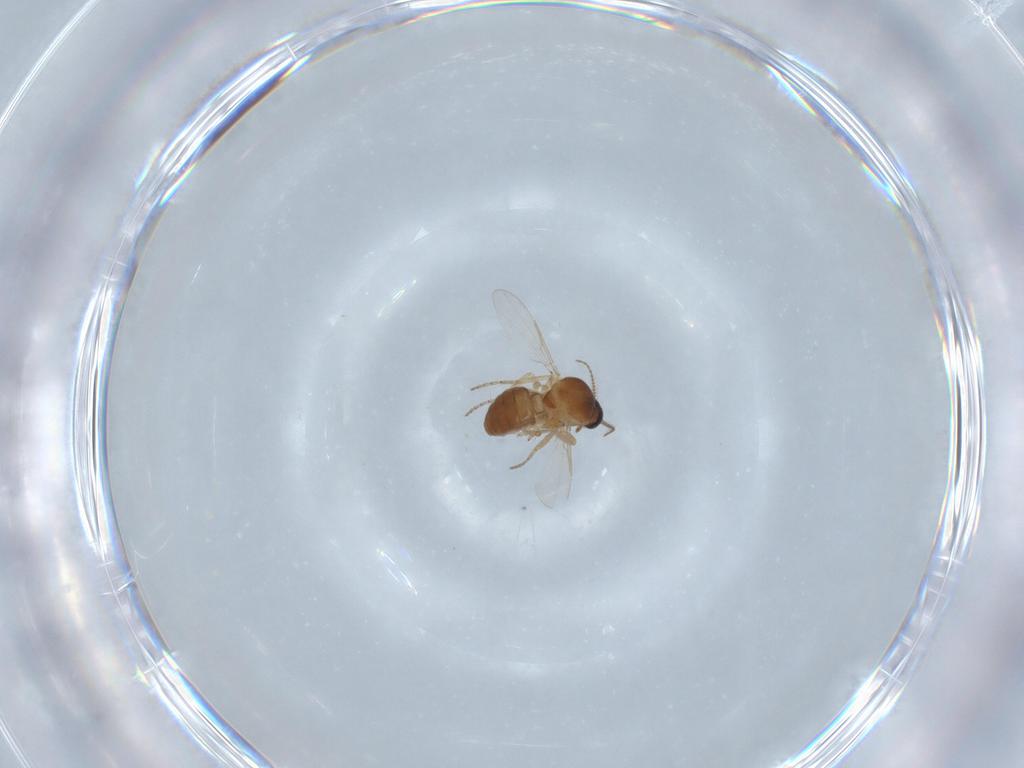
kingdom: Animalia
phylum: Arthropoda
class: Insecta
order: Diptera
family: Ceratopogonidae
